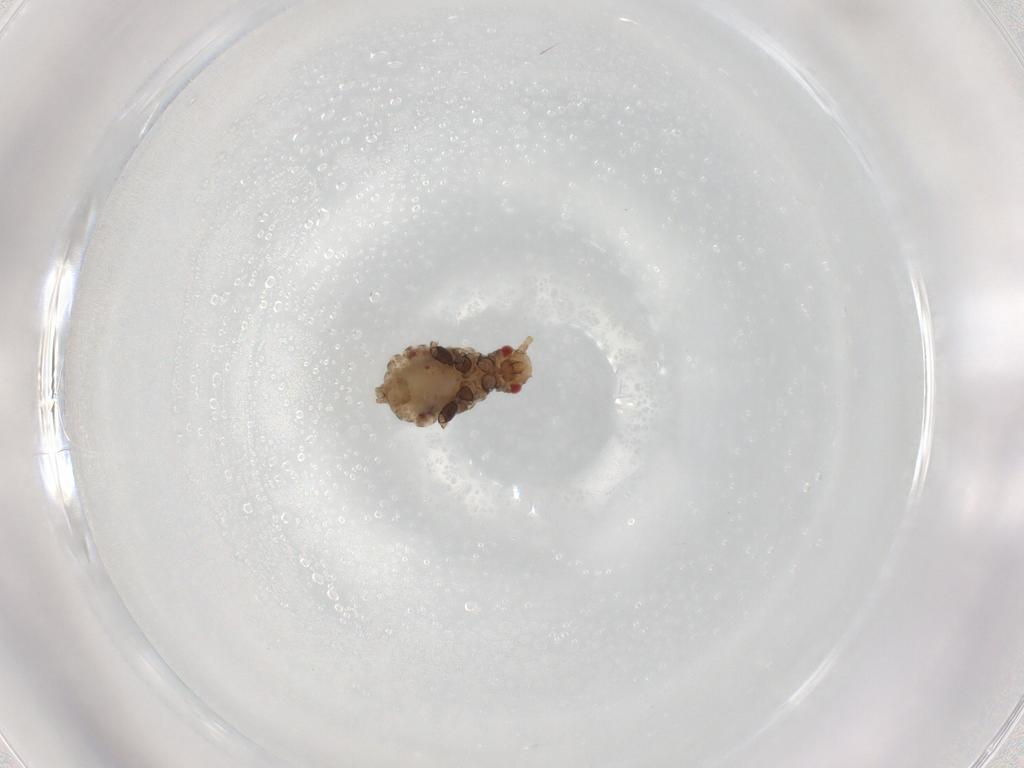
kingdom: Animalia
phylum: Arthropoda
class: Insecta
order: Hemiptera
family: Aphididae
